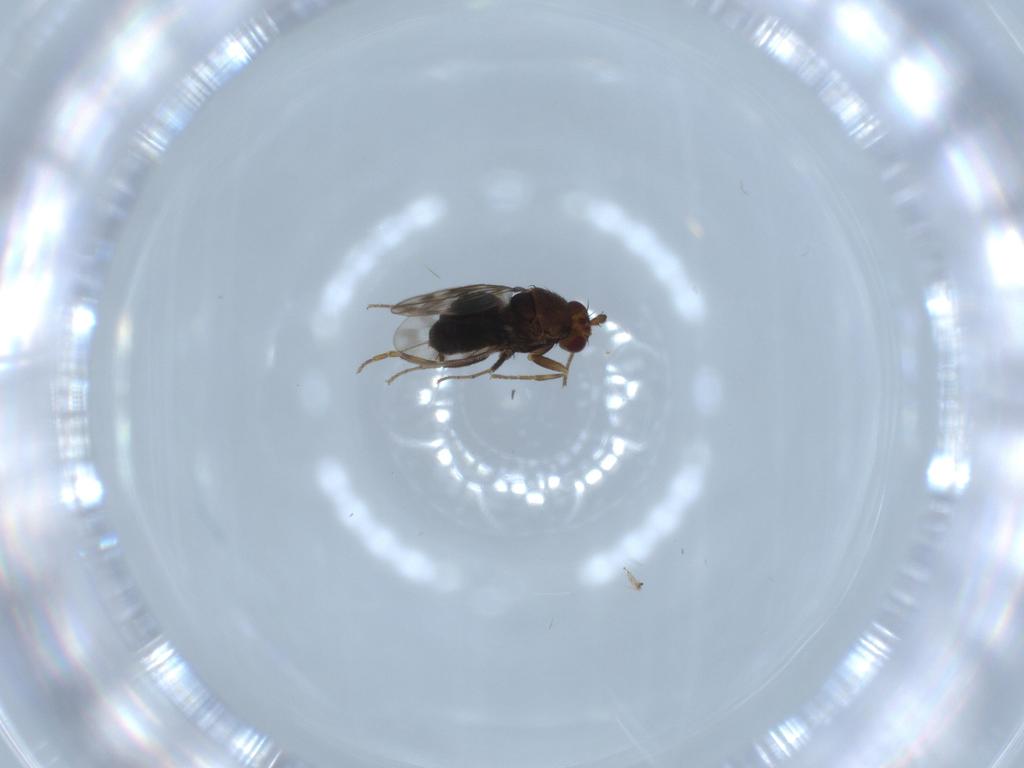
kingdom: Animalia
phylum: Arthropoda
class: Insecta
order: Diptera
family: Sphaeroceridae
